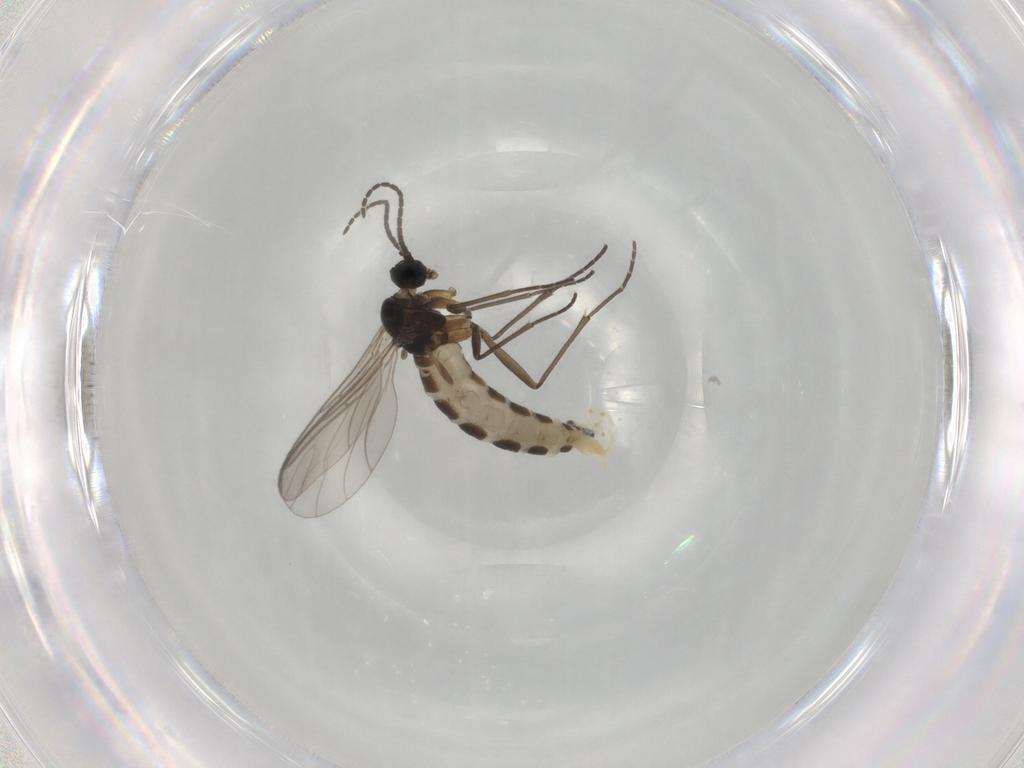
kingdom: Animalia
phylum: Arthropoda
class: Insecta
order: Diptera
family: Sciaridae
